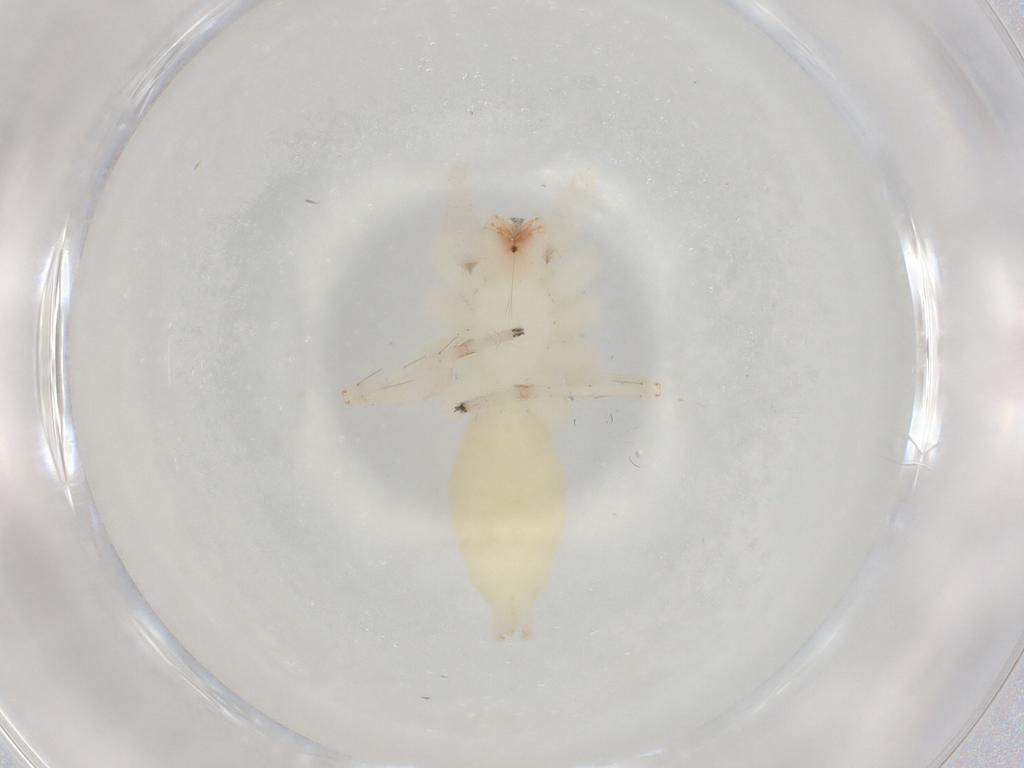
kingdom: Animalia
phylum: Arthropoda
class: Arachnida
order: Araneae
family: Anyphaenidae
